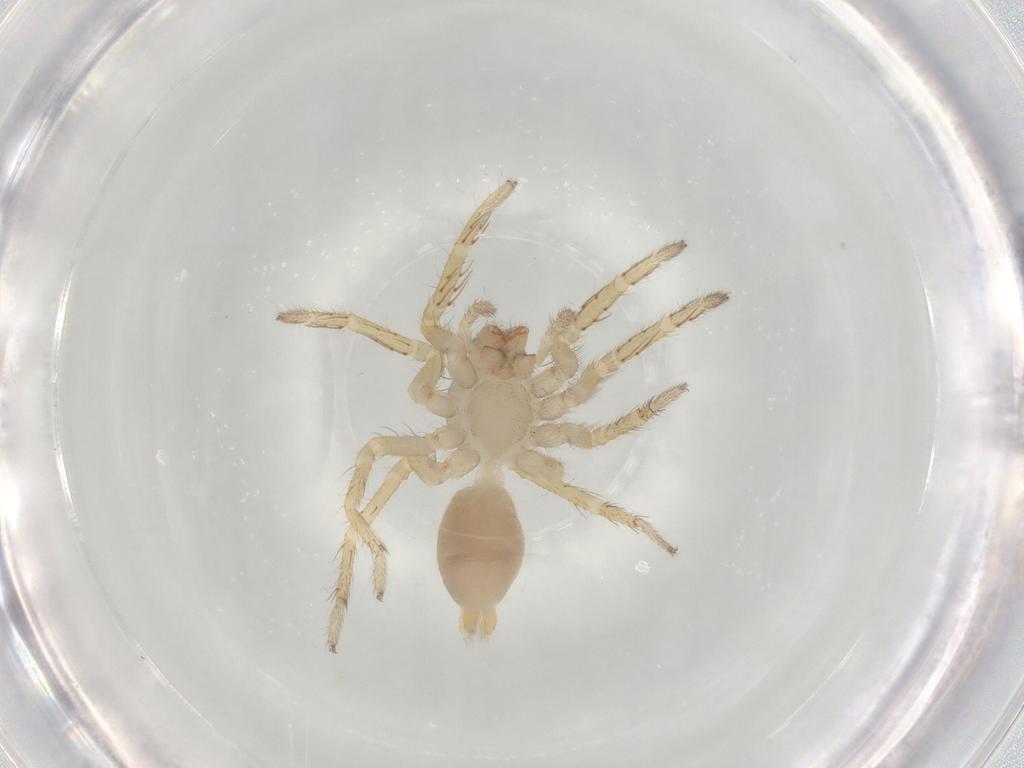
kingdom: Animalia
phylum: Arthropoda
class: Arachnida
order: Araneae
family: Clubionidae
